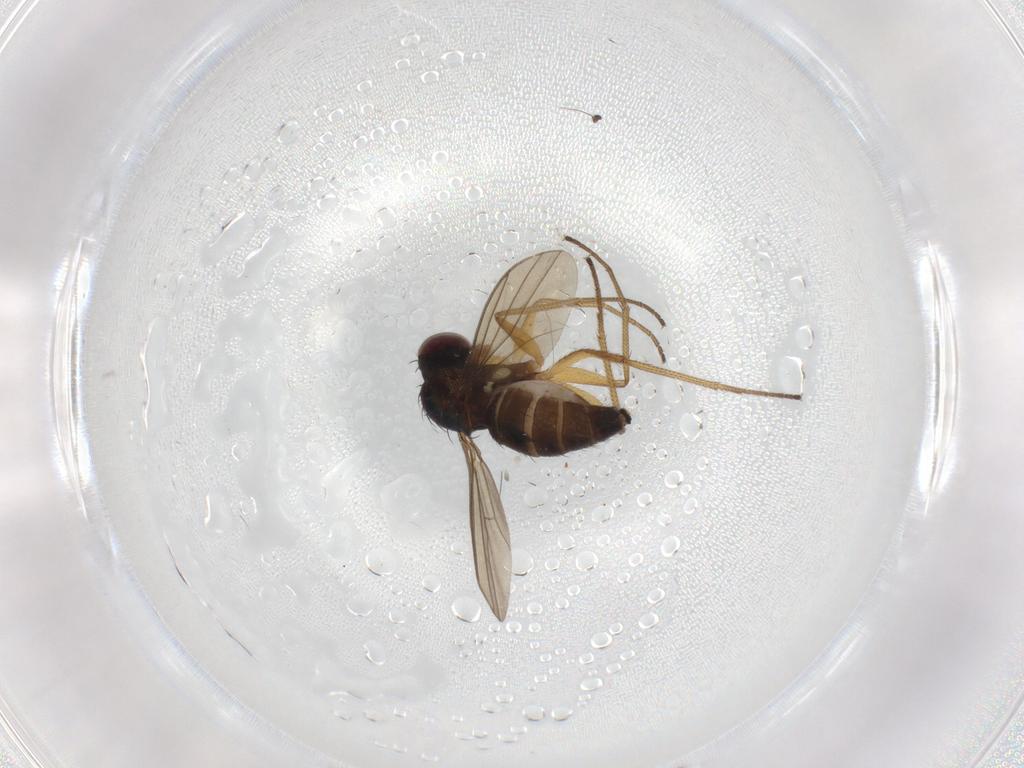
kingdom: Animalia
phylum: Arthropoda
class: Insecta
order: Diptera
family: Dolichopodidae
